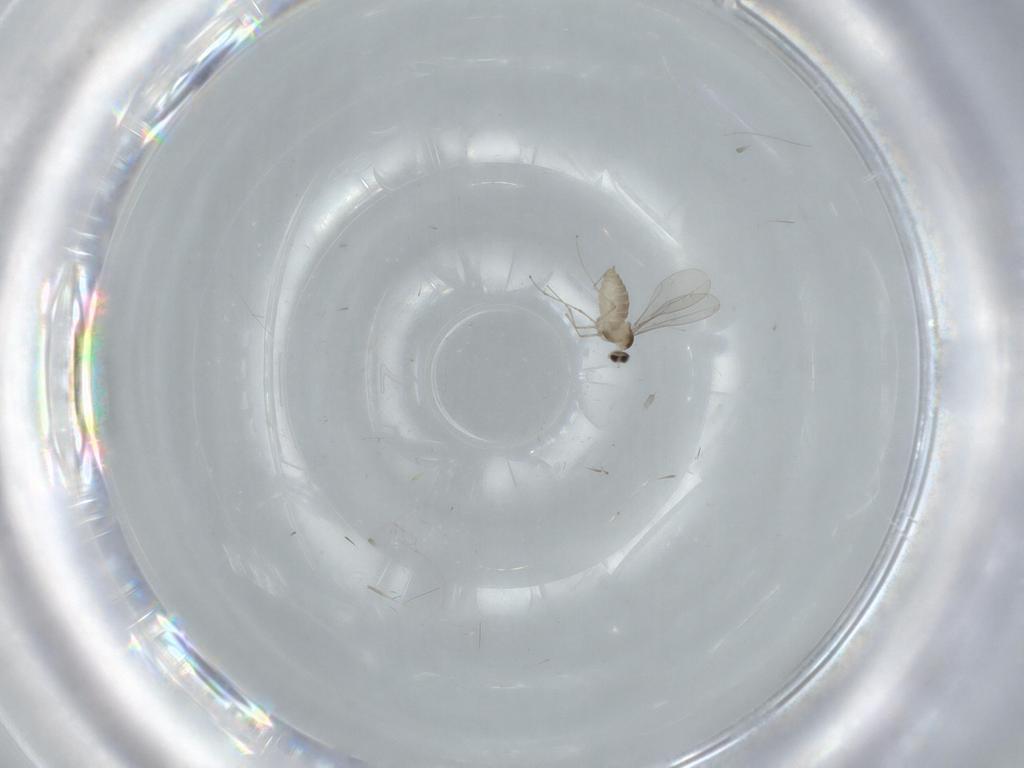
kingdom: Animalia
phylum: Arthropoda
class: Insecta
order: Diptera
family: Cecidomyiidae
